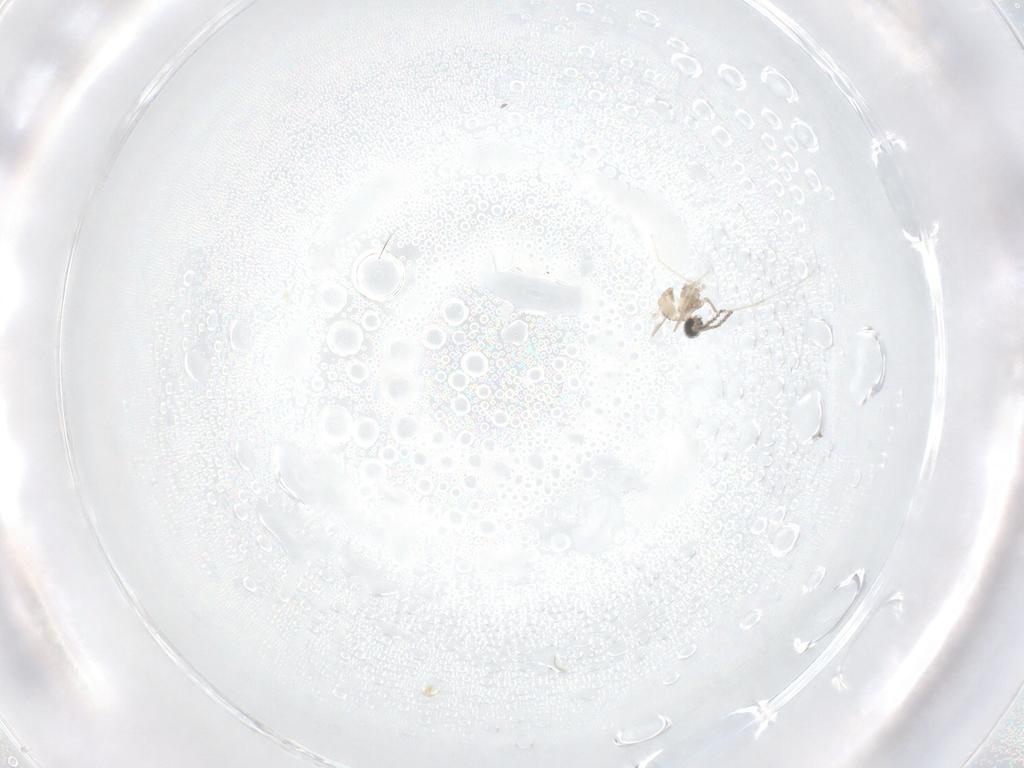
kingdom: Animalia
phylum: Arthropoda
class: Insecta
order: Diptera
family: Cecidomyiidae
